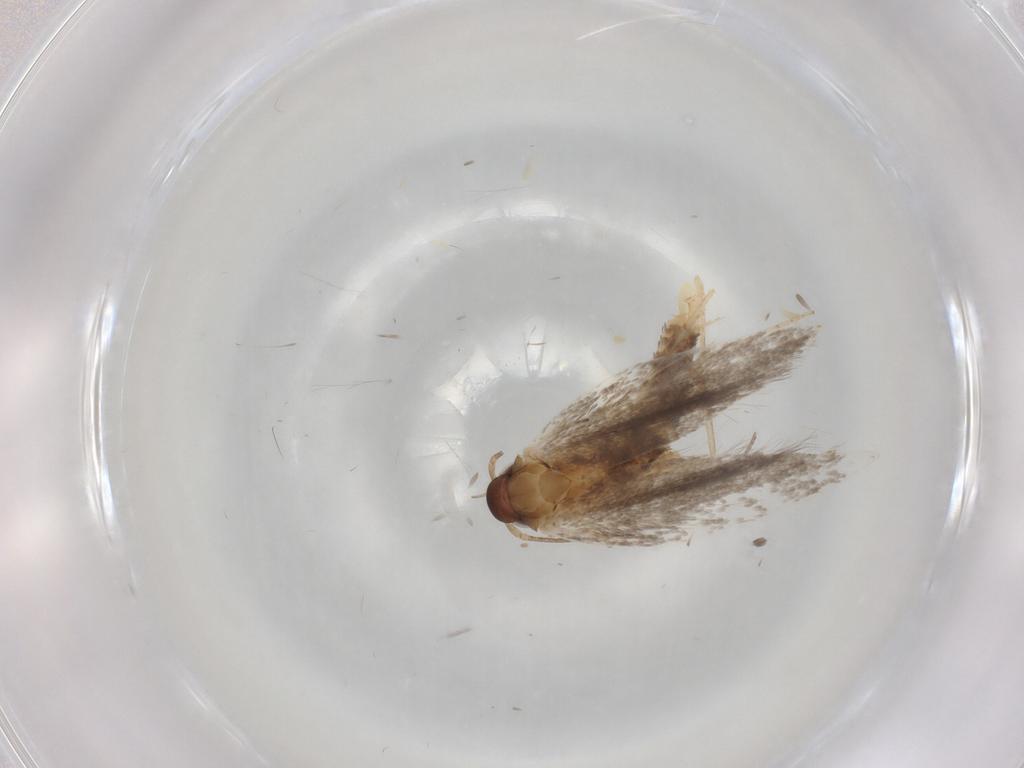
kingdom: Animalia
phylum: Arthropoda
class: Insecta
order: Lepidoptera
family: Gelechiidae
